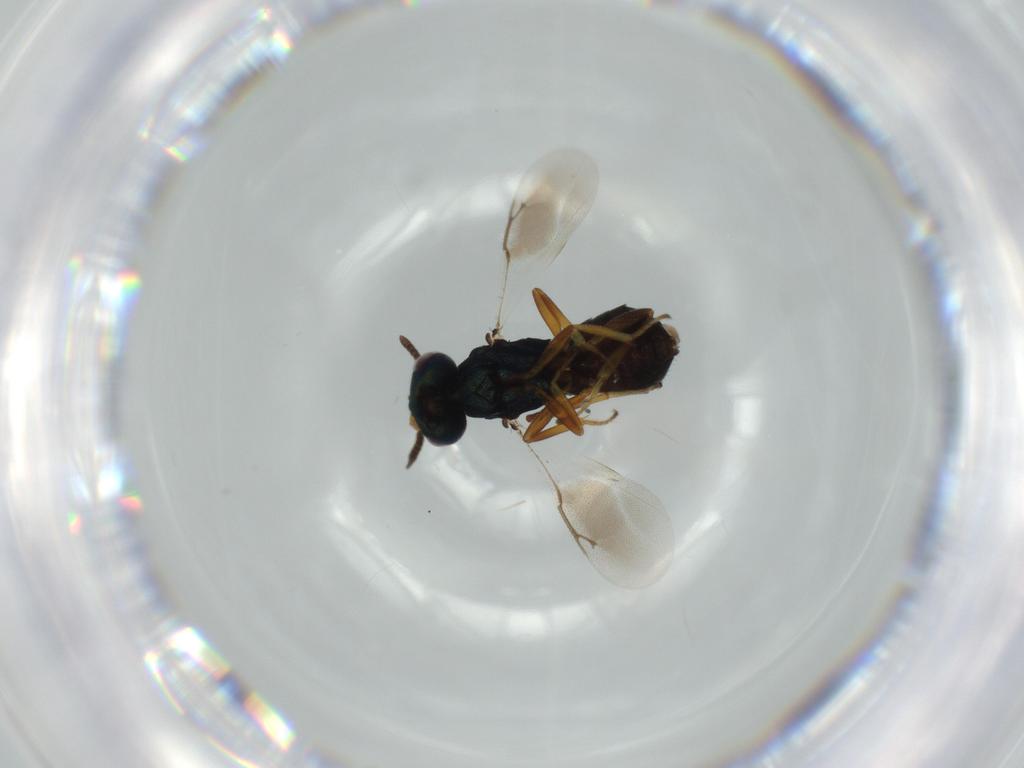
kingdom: Animalia
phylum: Arthropoda
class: Insecta
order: Hymenoptera
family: Pteromalidae
